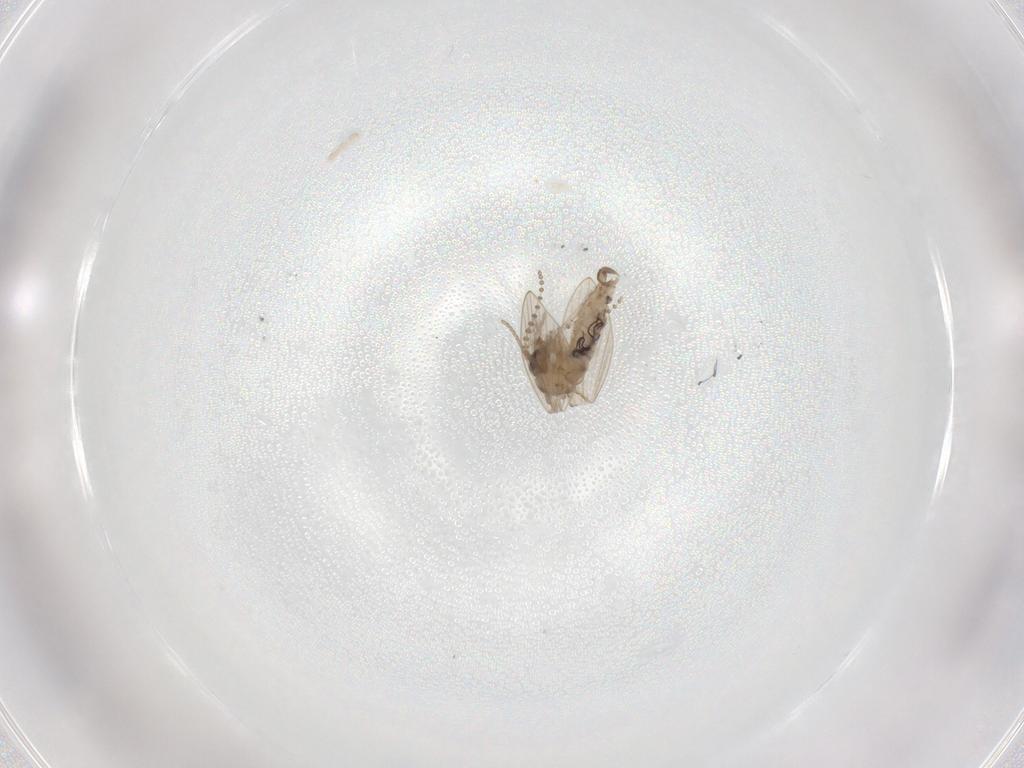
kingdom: Animalia
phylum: Arthropoda
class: Insecta
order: Diptera
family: Psychodidae
